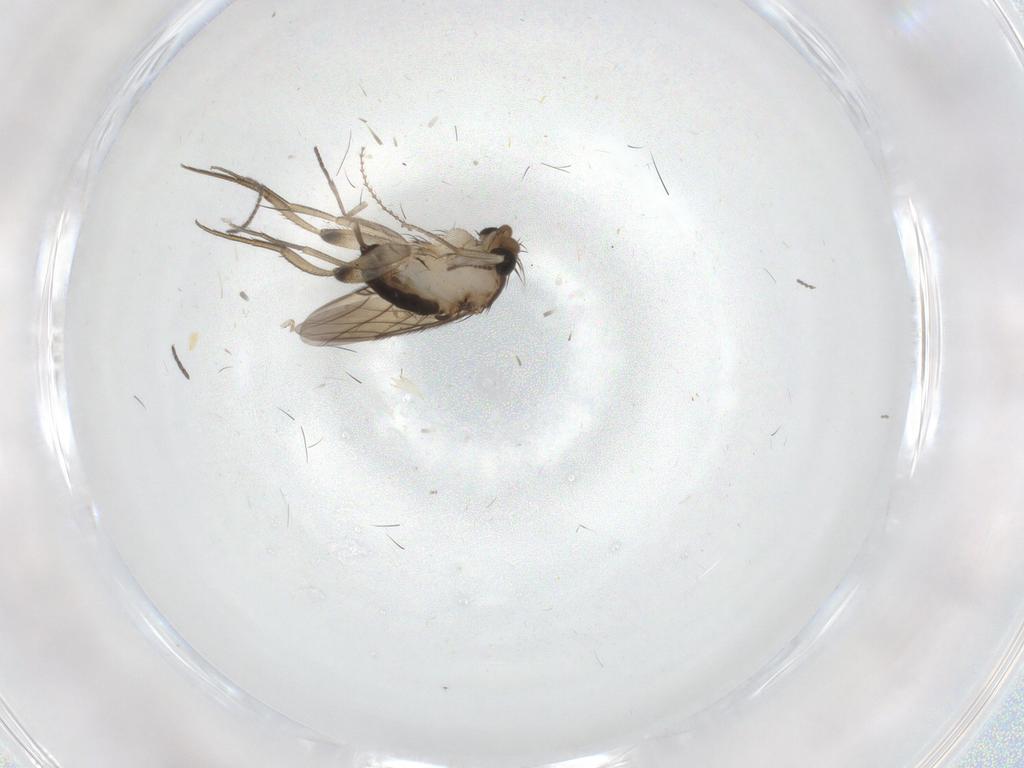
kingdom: Animalia
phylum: Arthropoda
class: Insecta
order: Diptera
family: Phoridae
